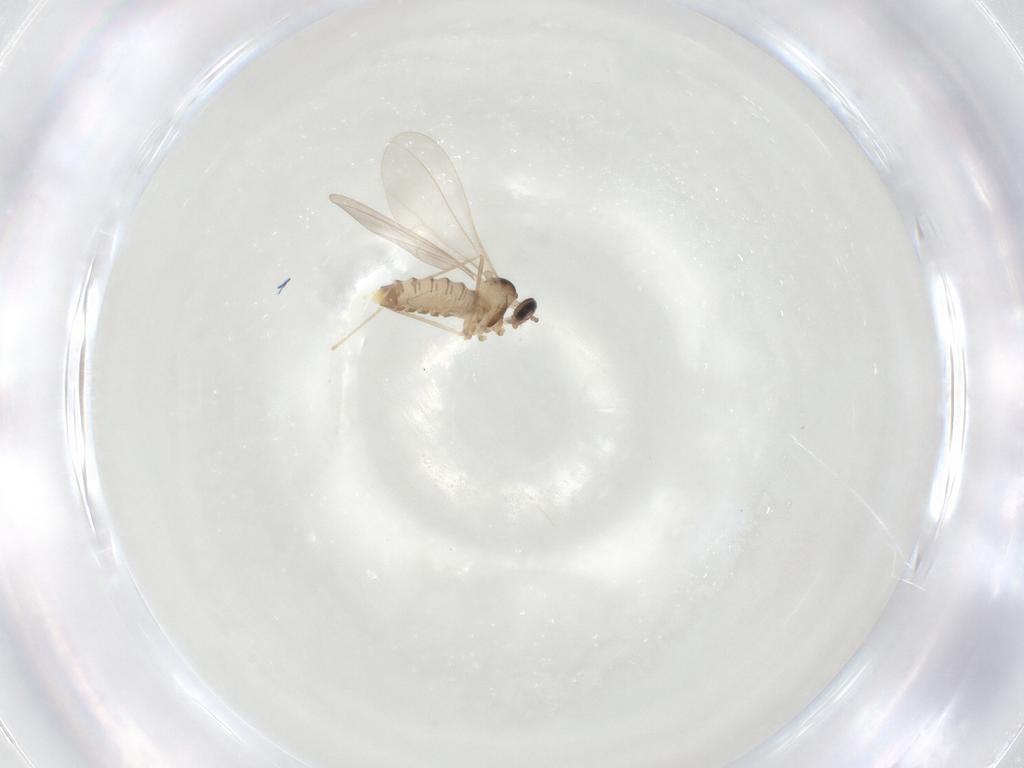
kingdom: Animalia
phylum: Arthropoda
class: Insecta
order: Diptera
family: Cecidomyiidae
